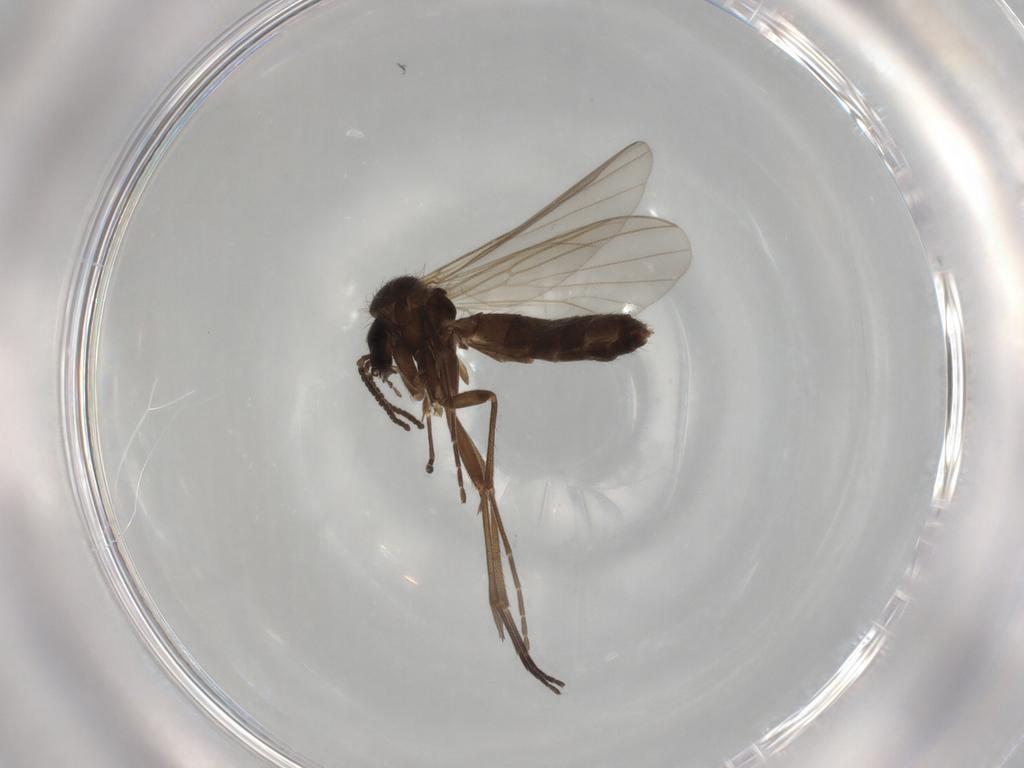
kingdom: Animalia
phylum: Arthropoda
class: Insecta
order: Diptera
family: Mycetophilidae
